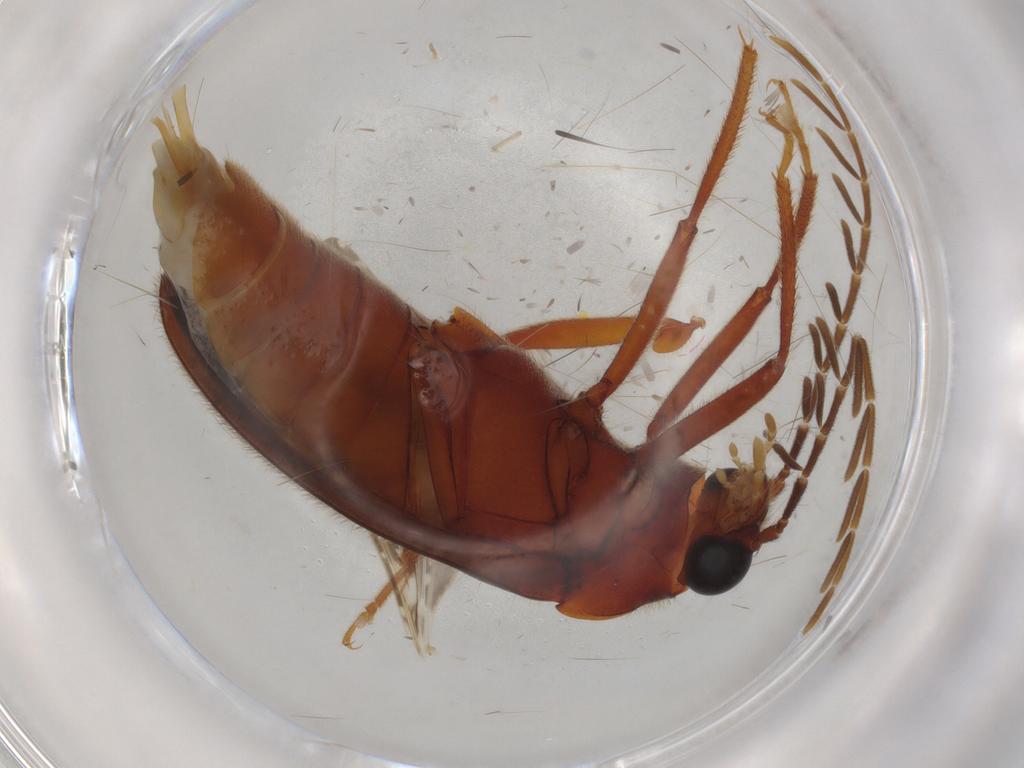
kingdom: Animalia
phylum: Arthropoda
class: Insecta
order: Coleoptera
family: Ptilodactylidae
